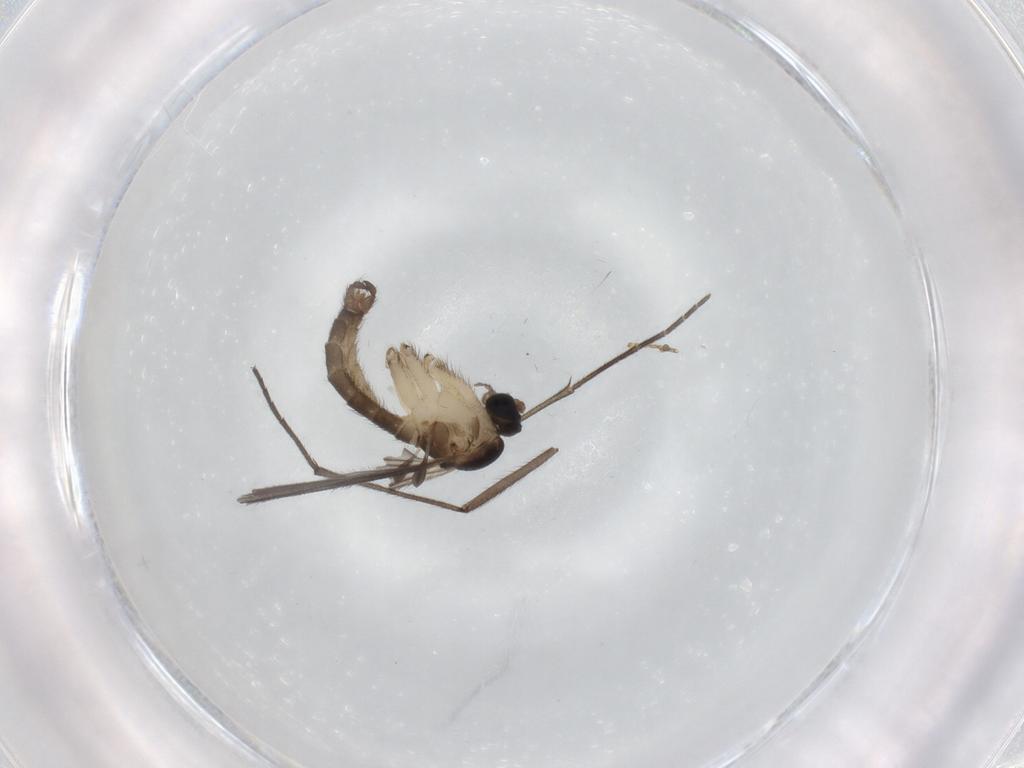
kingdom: Animalia
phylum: Arthropoda
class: Insecta
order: Diptera
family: Sciaridae
